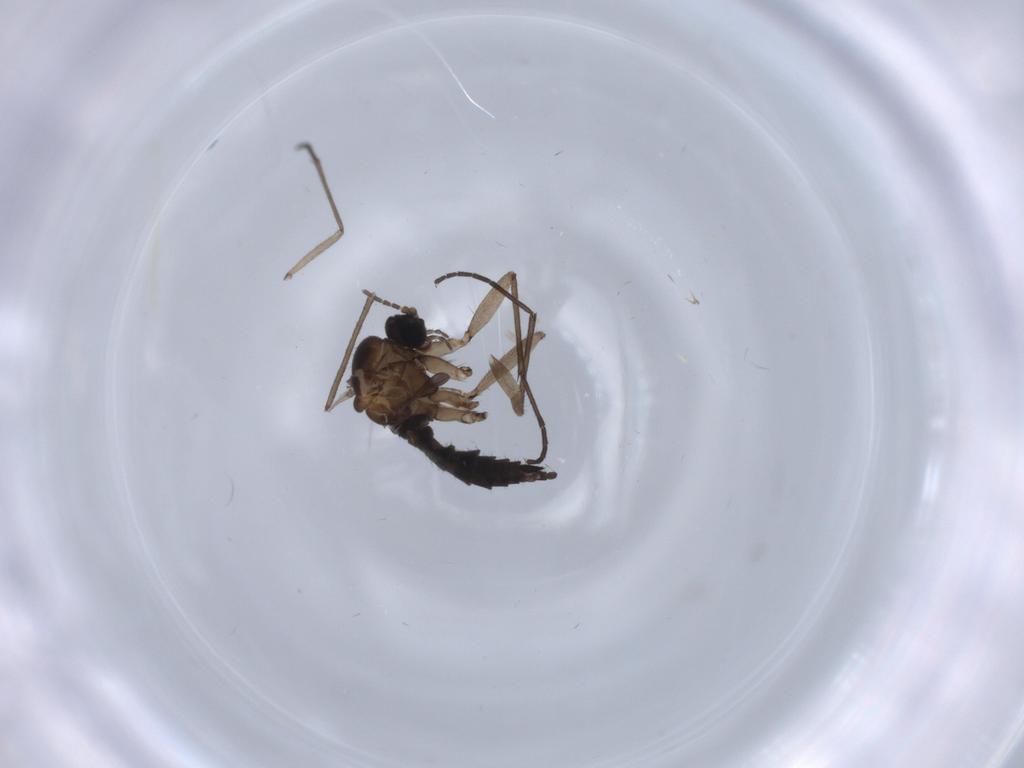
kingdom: Animalia
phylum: Arthropoda
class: Insecta
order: Diptera
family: Sciaridae
